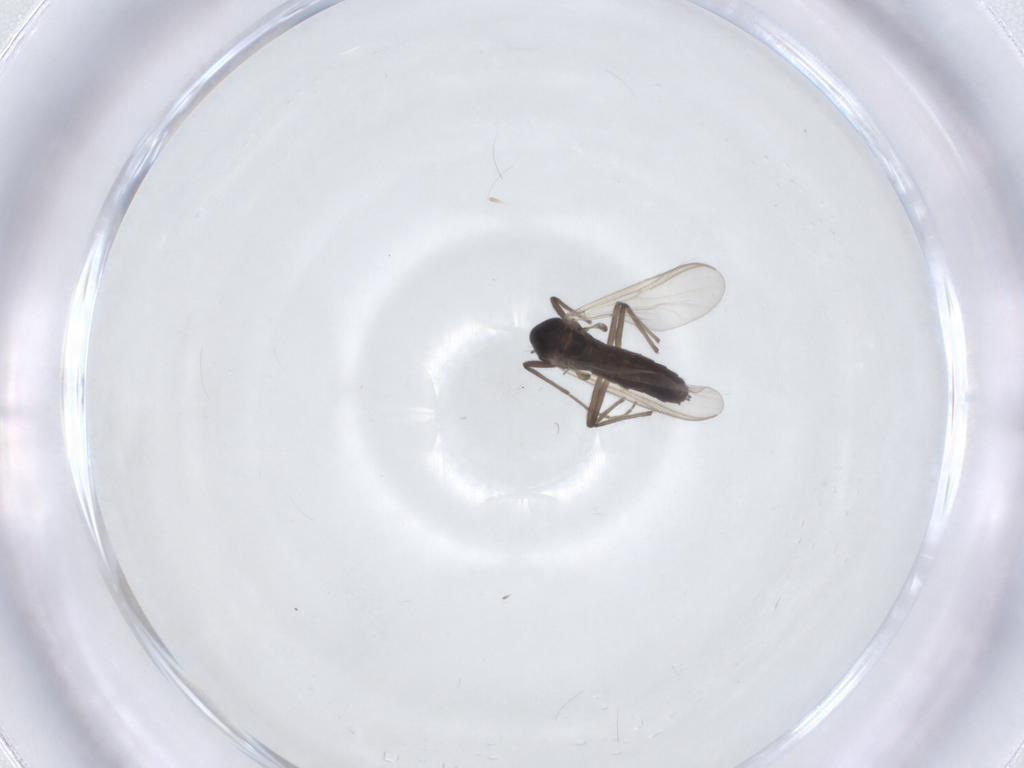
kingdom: Animalia
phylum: Arthropoda
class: Insecta
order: Diptera
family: Chironomidae
